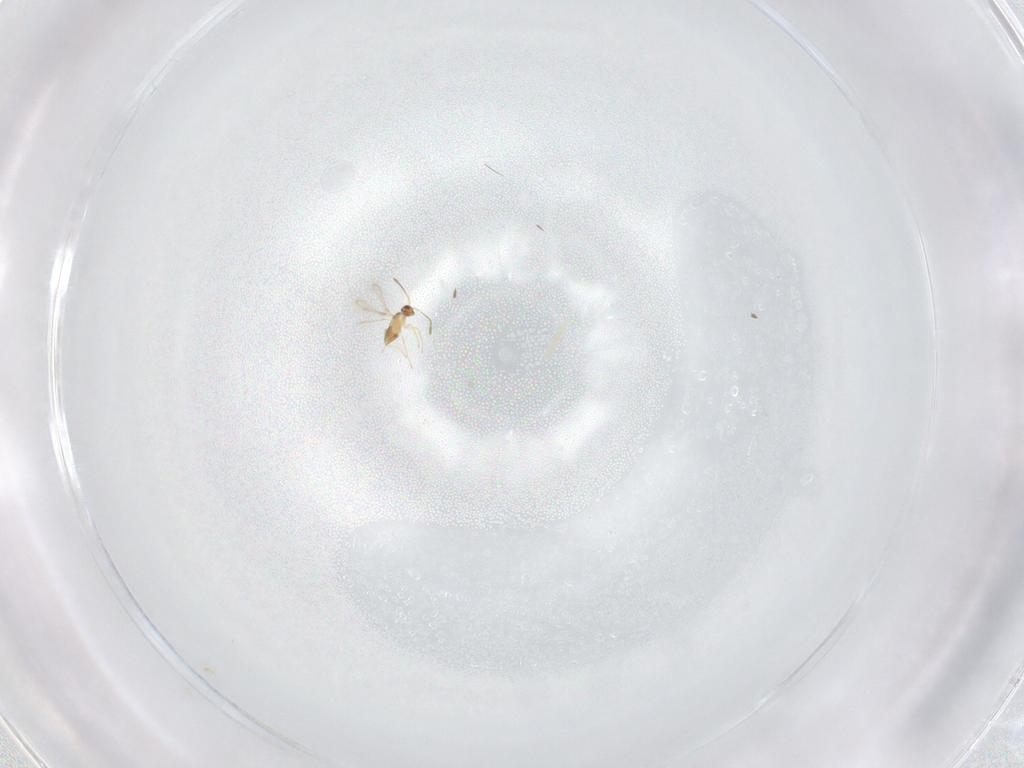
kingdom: Animalia
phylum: Arthropoda
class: Insecta
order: Hymenoptera
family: Mymaridae
